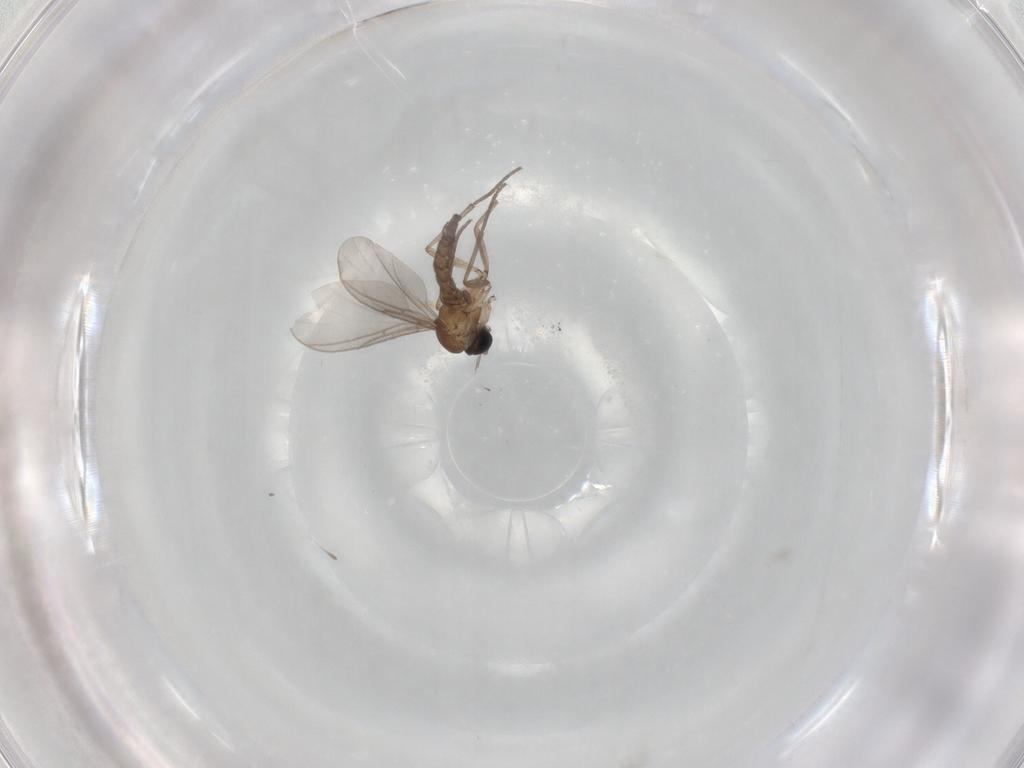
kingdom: Animalia
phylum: Arthropoda
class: Insecta
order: Diptera
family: Sciaridae
